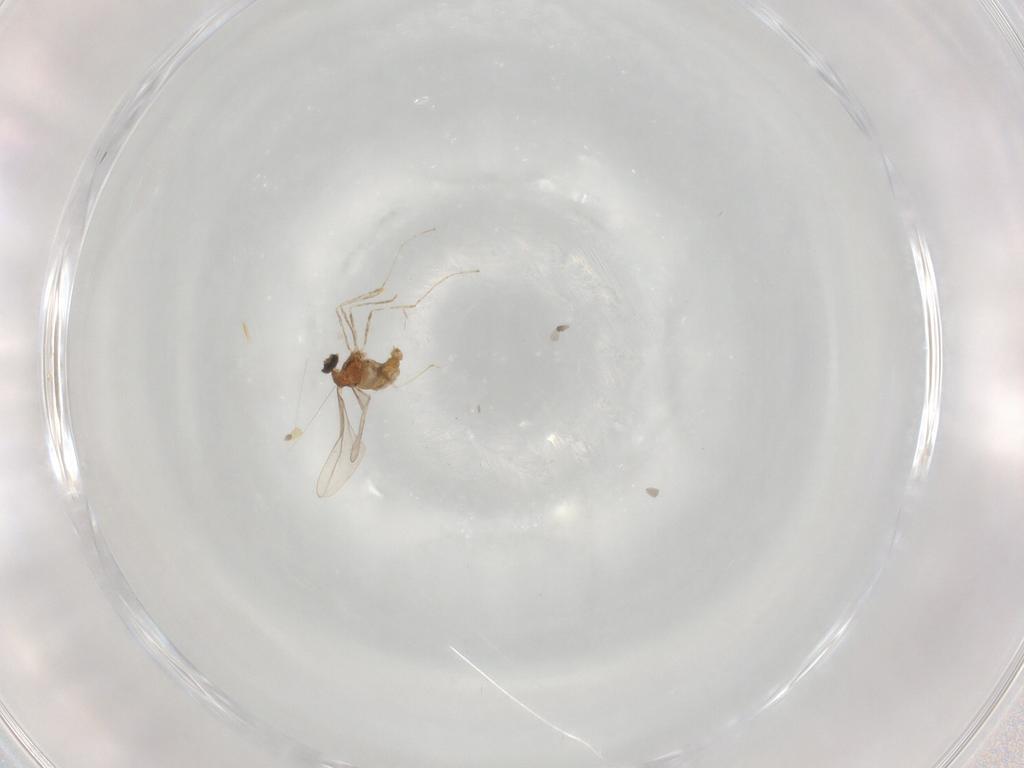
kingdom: Animalia
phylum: Arthropoda
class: Insecta
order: Diptera
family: Cecidomyiidae
